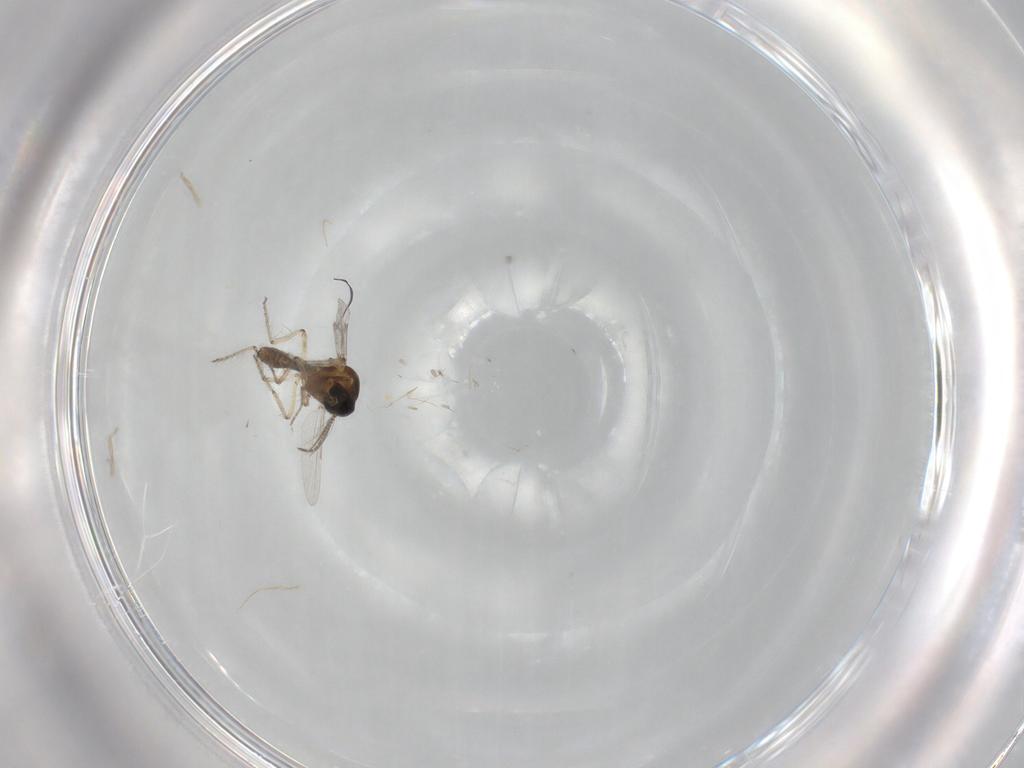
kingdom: Animalia
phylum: Arthropoda
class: Insecta
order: Diptera
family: Ceratopogonidae
